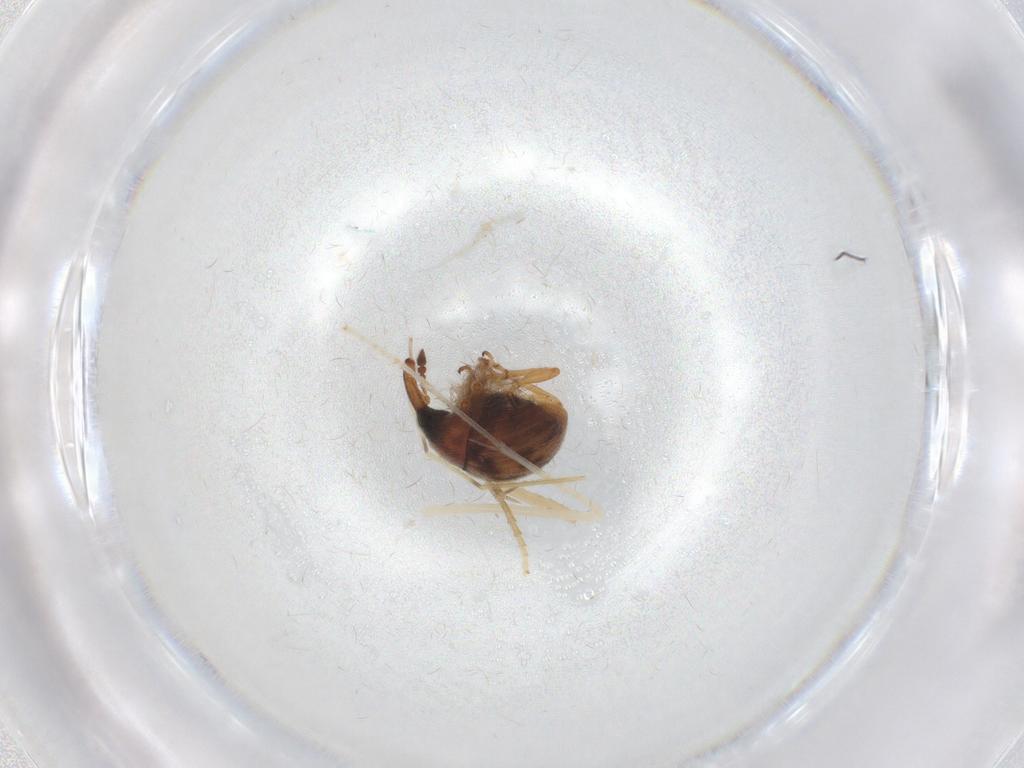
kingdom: Animalia
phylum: Arthropoda
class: Insecta
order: Coleoptera
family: Brentidae
